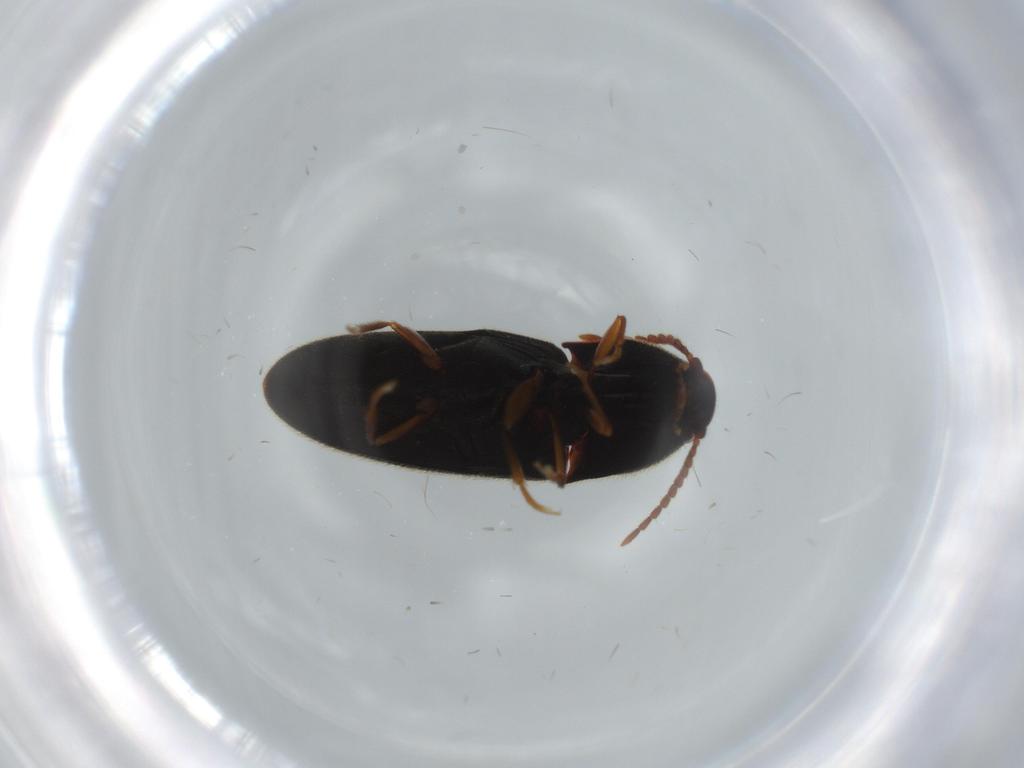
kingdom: Animalia
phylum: Arthropoda
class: Insecta
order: Coleoptera
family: Elateridae
